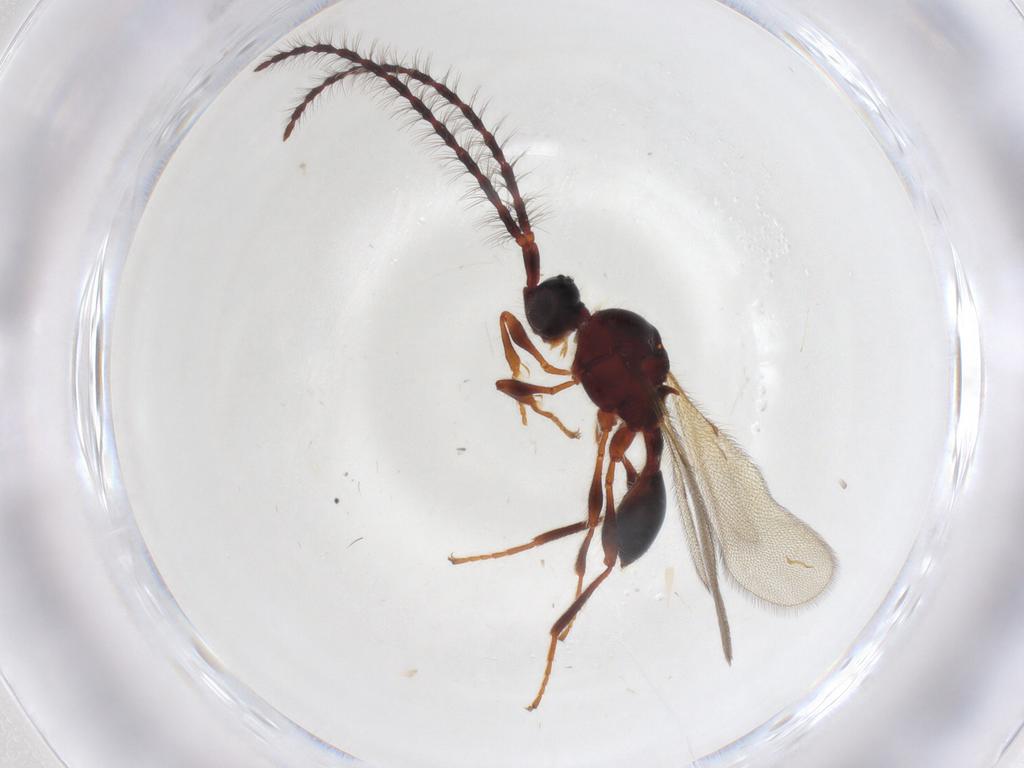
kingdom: Animalia
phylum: Arthropoda
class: Insecta
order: Hymenoptera
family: Diapriidae
